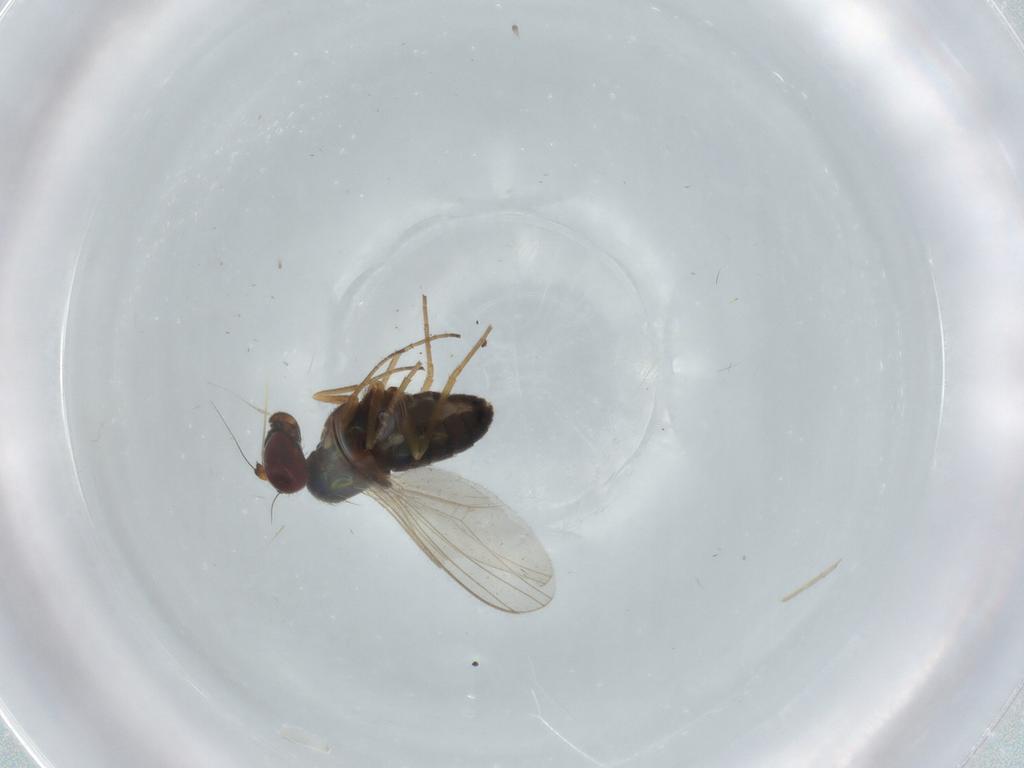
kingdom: Animalia
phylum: Arthropoda
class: Insecta
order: Diptera
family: Dolichopodidae
